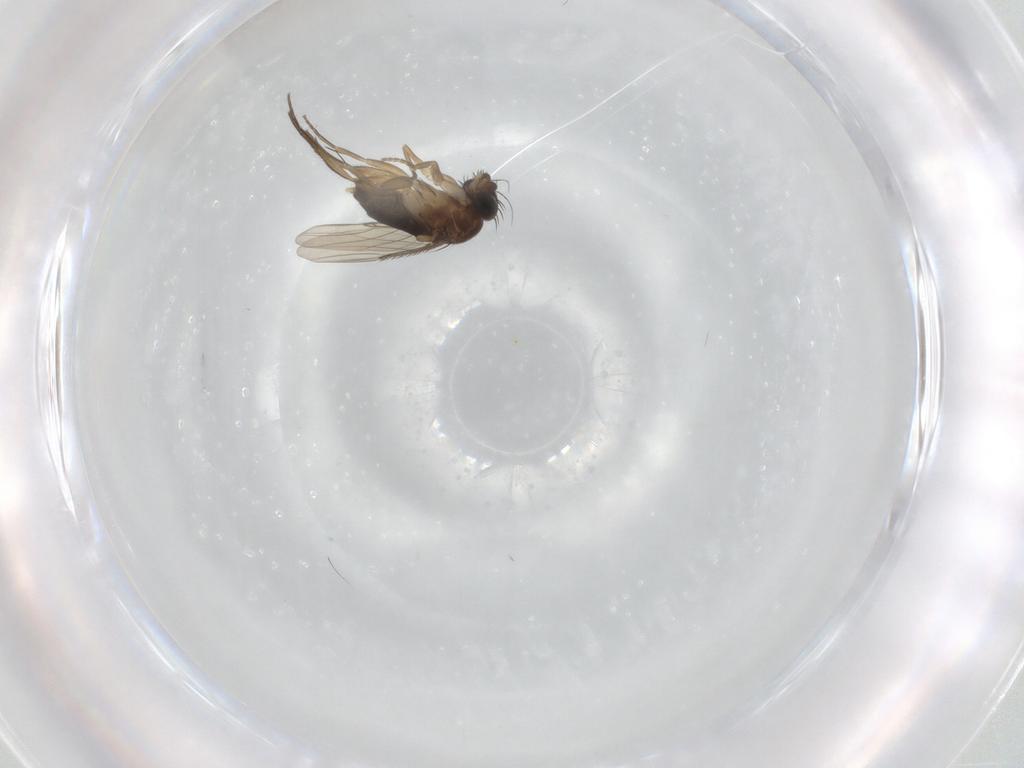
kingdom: Animalia
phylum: Arthropoda
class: Insecta
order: Diptera
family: Phoridae
